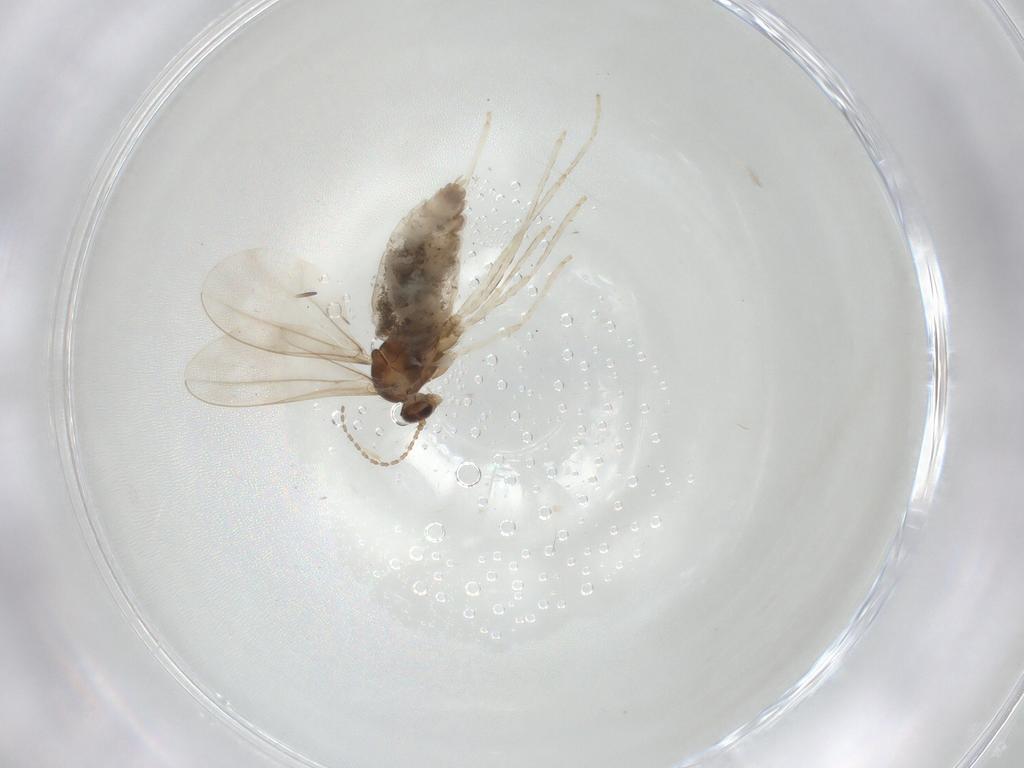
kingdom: Animalia
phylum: Arthropoda
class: Insecta
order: Diptera
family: Cecidomyiidae
